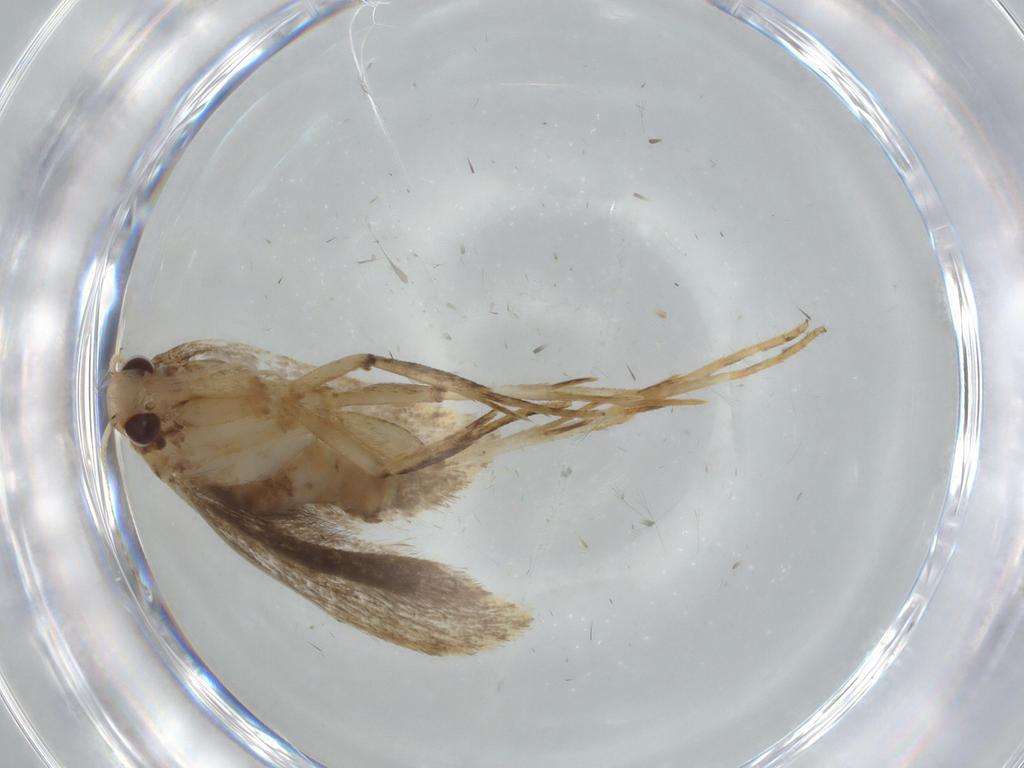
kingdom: Animalia
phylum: Arthropoda
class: Insecta
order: Lepidoptera
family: Gelechiidae
